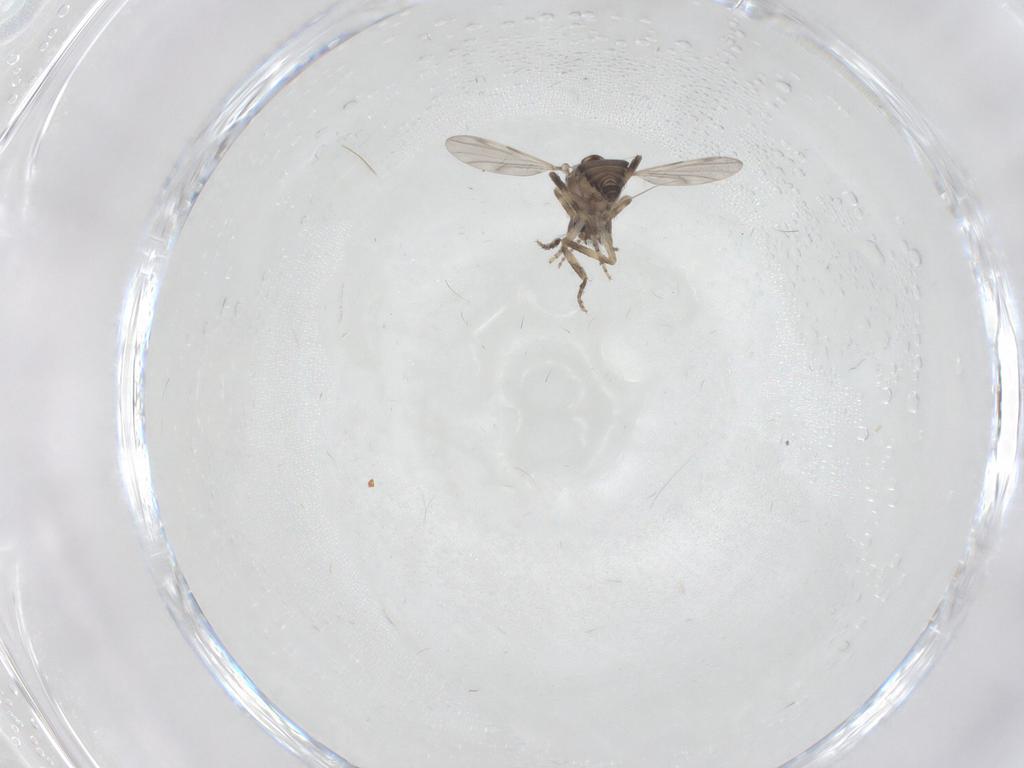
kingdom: Animalia
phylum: Arthropoda
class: Insecta
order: Diptera
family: Ceratopogonidae
